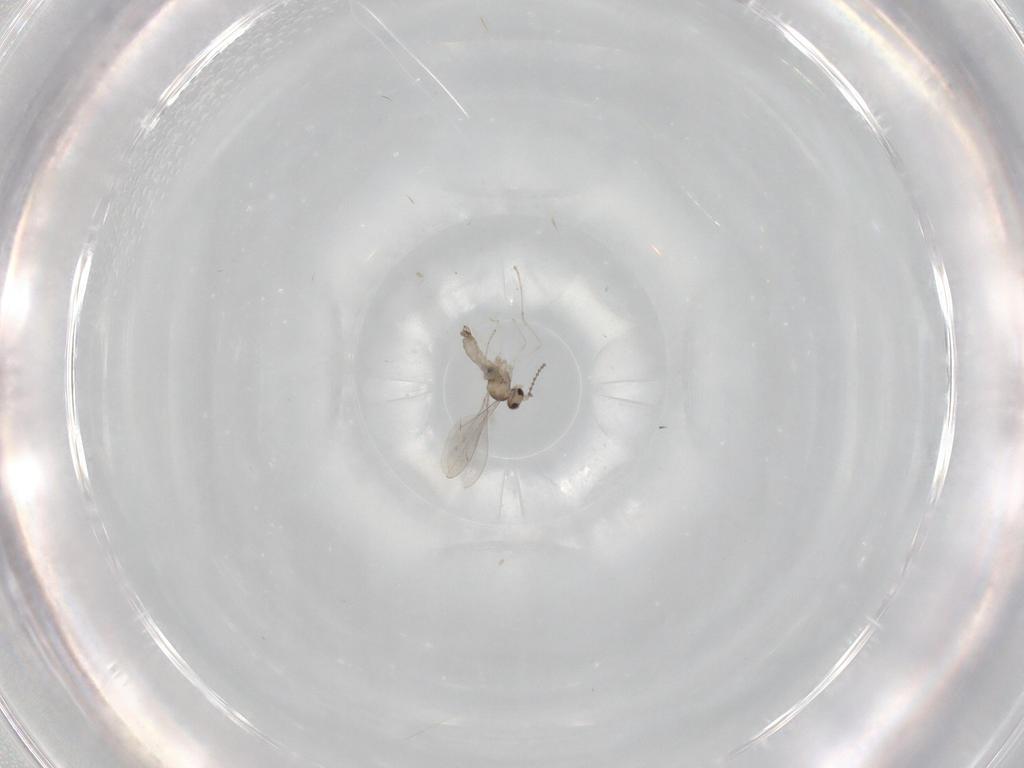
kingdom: Animalia
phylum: Arthropoda
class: Insecta
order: Diptera
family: Cecidomyiidae
